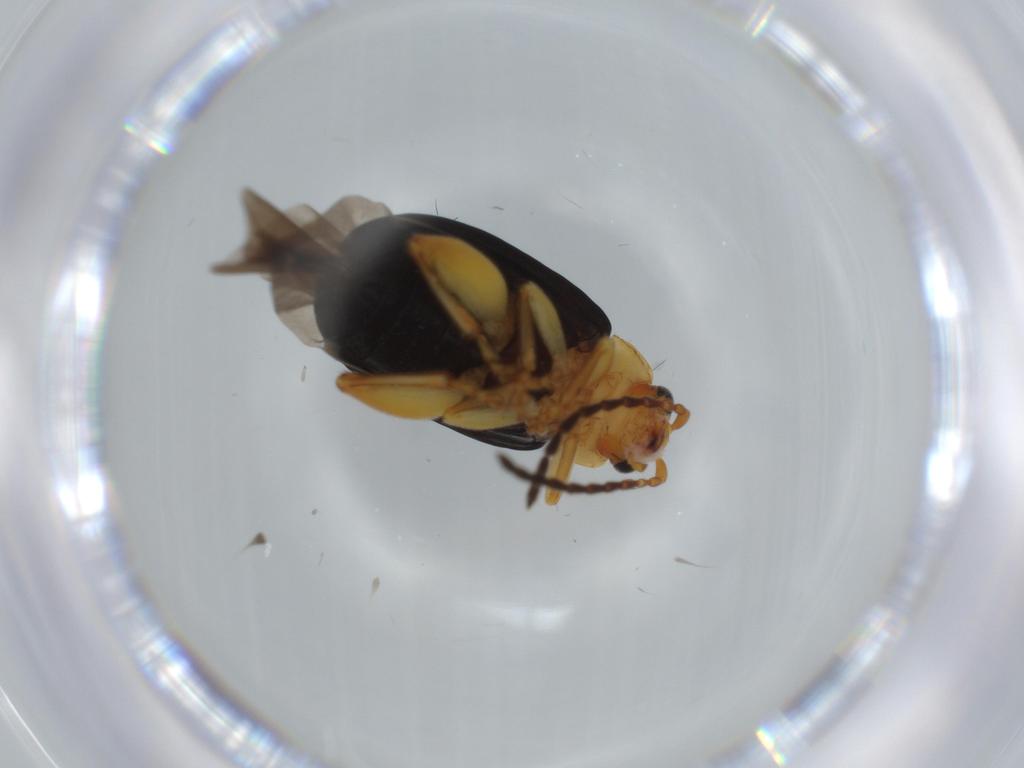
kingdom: Animalia
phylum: Arthropoda
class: Insecta
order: Coleoptera
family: Chrysomelidae
